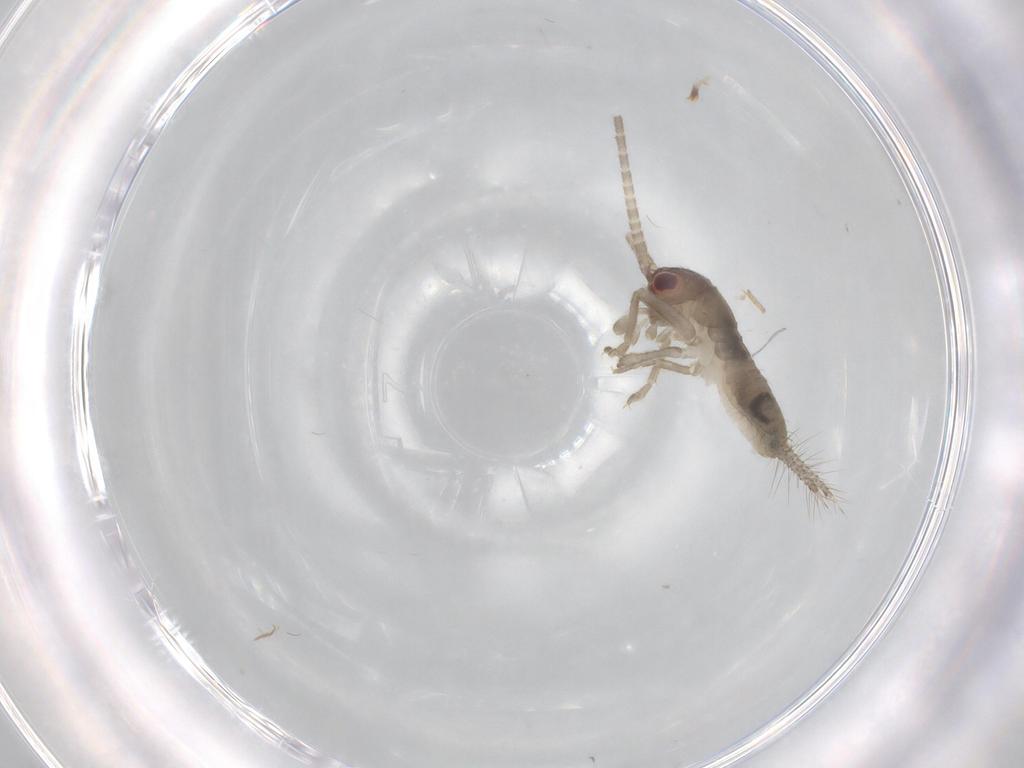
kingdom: Animalia
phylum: Arthropoda
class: Insecta
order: Orthoptera
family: Gryllidae
